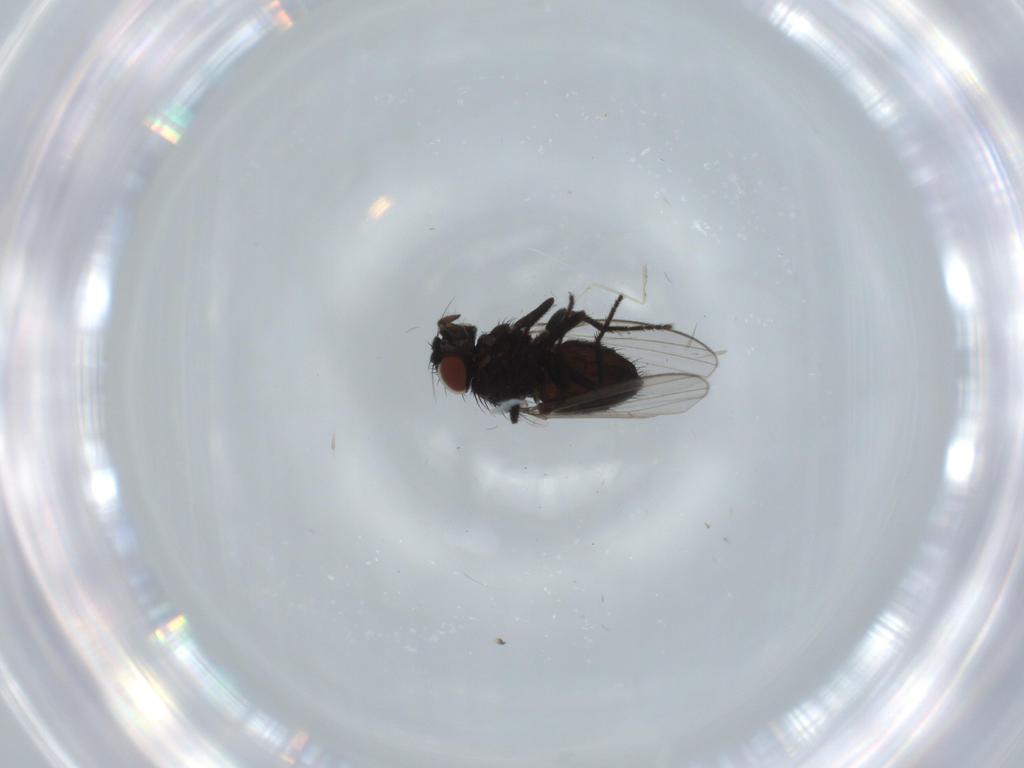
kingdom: Animalia
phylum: Arthropoda
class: Insecta
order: Diptera
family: Milichiidae
